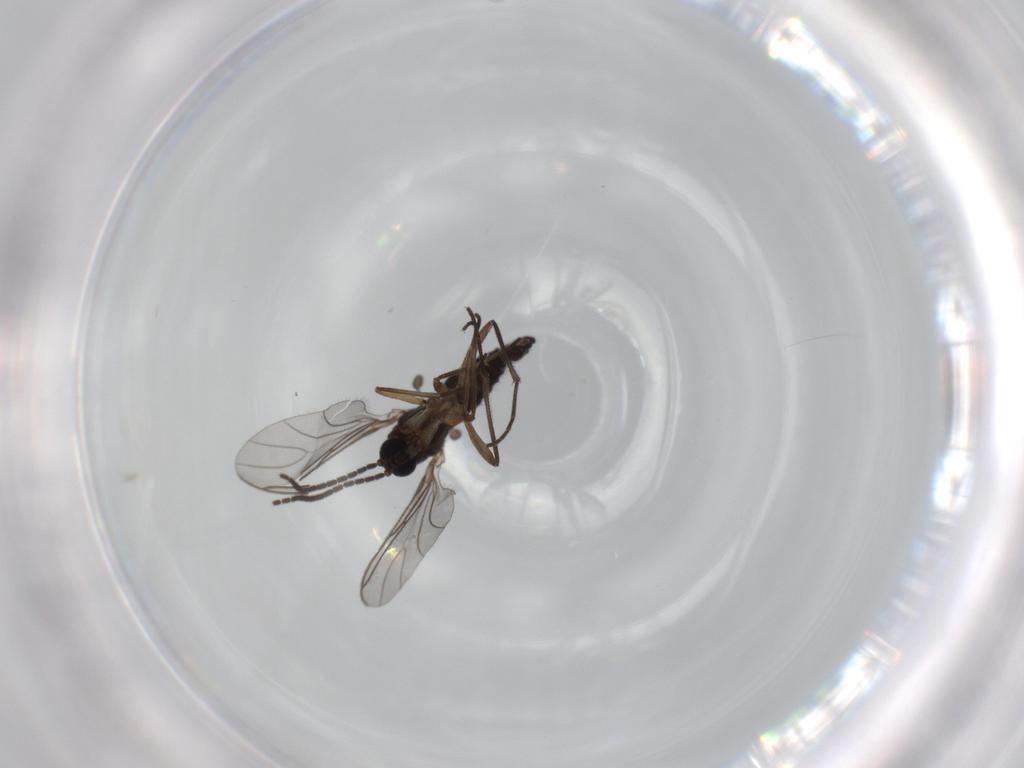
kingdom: Animalia
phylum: Arthropoda
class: Insecta
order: Diptera
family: Sciaridae
